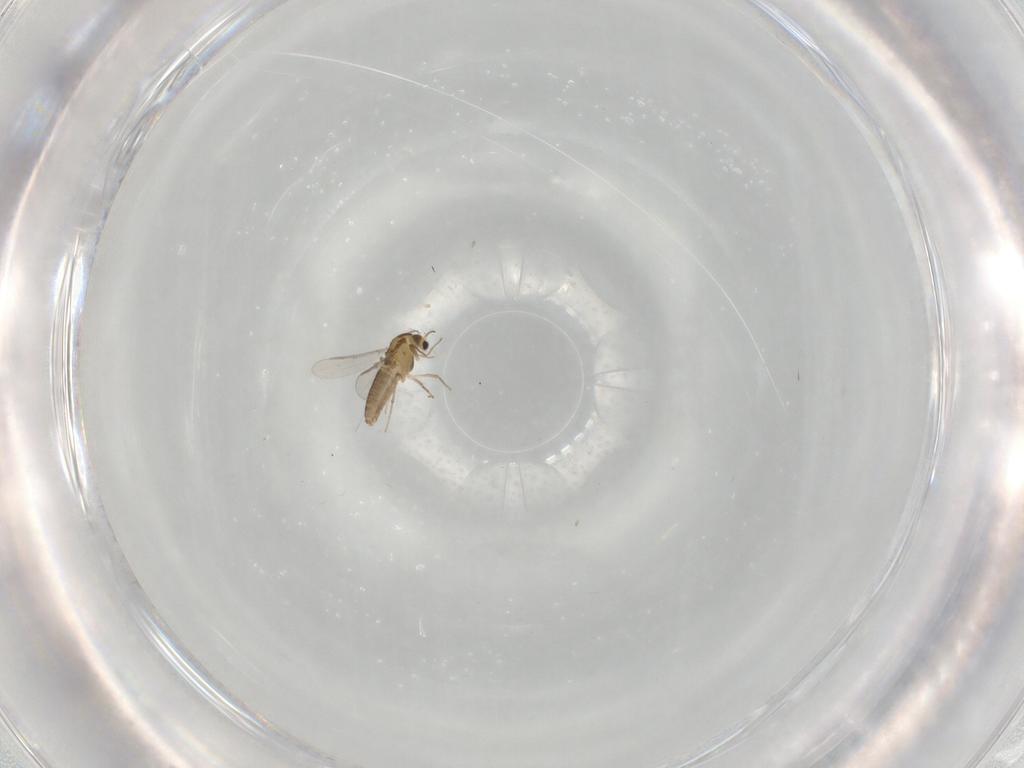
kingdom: Animalia
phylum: Arthropoda
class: Insecta
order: Diptera
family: Chironomidae
